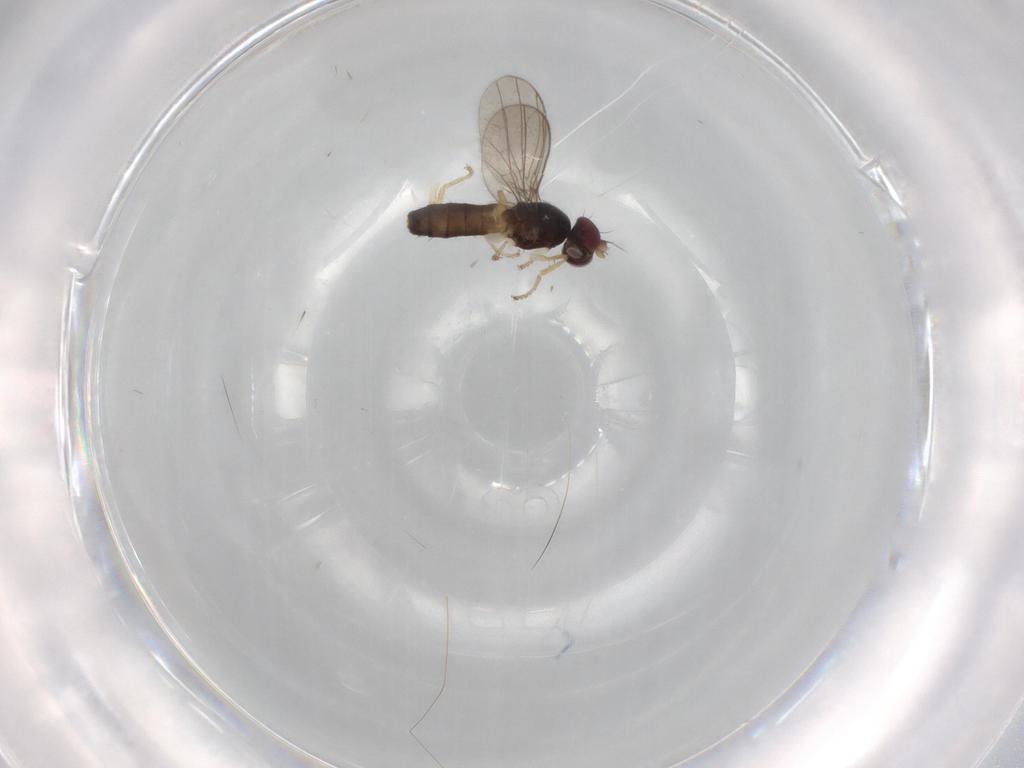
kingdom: Animalia
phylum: Arthropoda
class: Insecta
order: Diptera
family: Anthomyzidae
